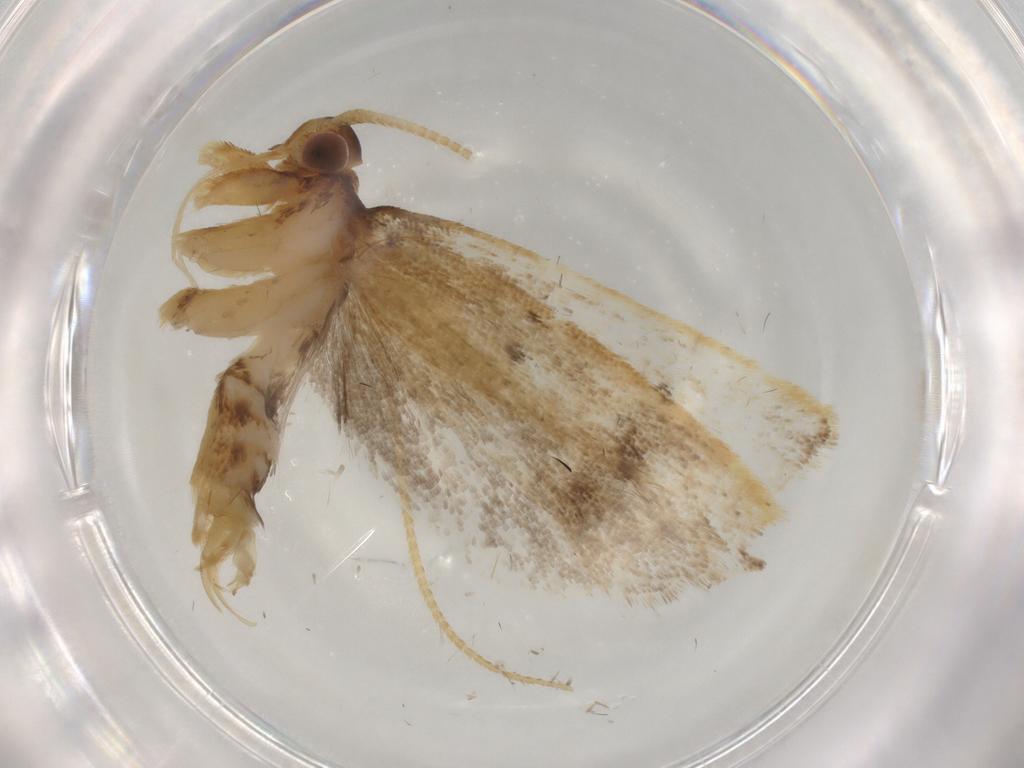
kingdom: Animalia
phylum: Arthropoda
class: Insecta
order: Lepidoptera
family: Lecithoceridae
